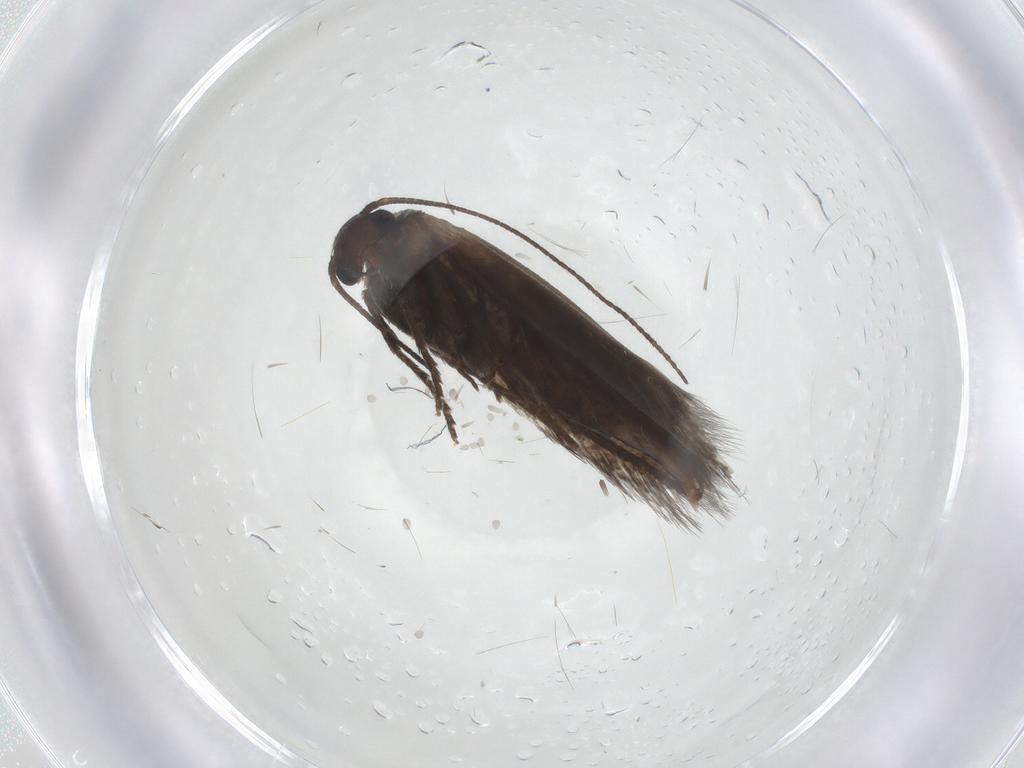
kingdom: Animalia
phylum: Arthropoda
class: Insecta
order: Lepidoptera
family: Heliozelidae
